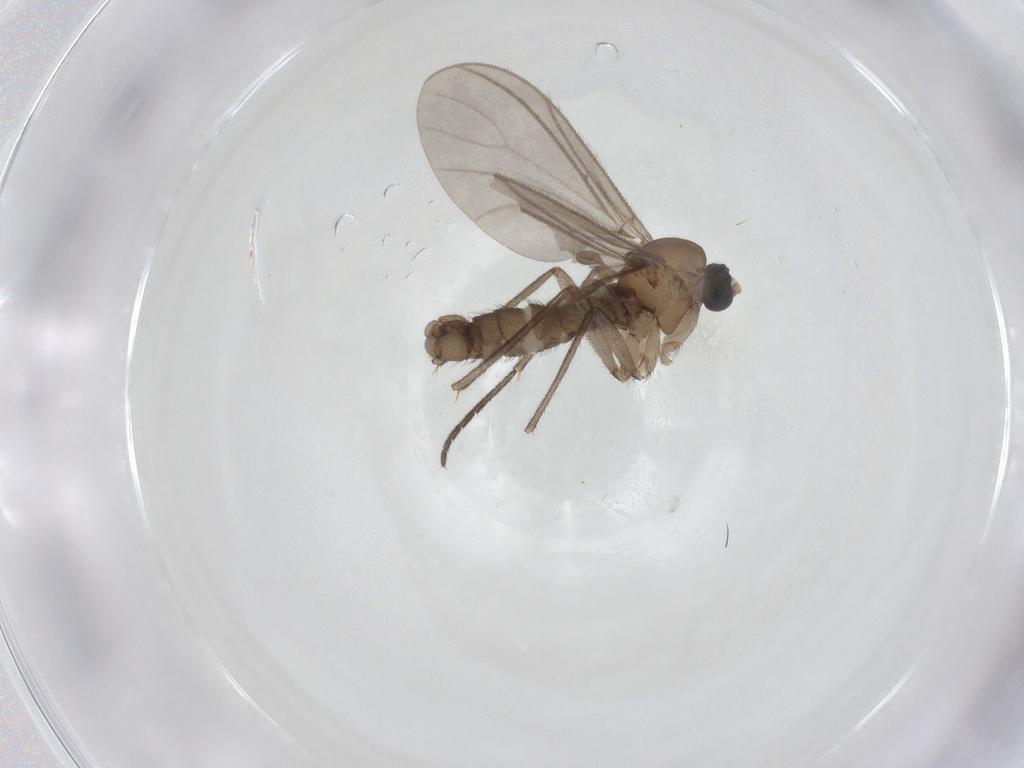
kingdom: Animalia
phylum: Arthropoda
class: Insecta
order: Diptera
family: Sciaridae
